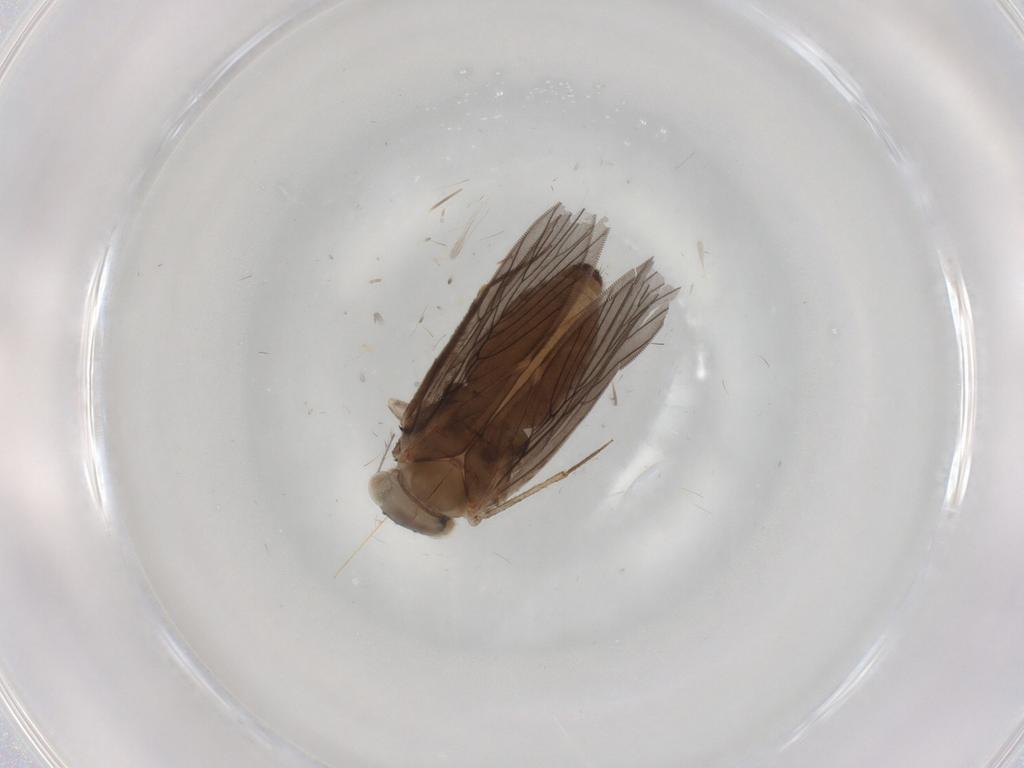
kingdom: Animalia
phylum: Arthropoda
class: Insecta
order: Psocodea
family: Lepidopsocidae
